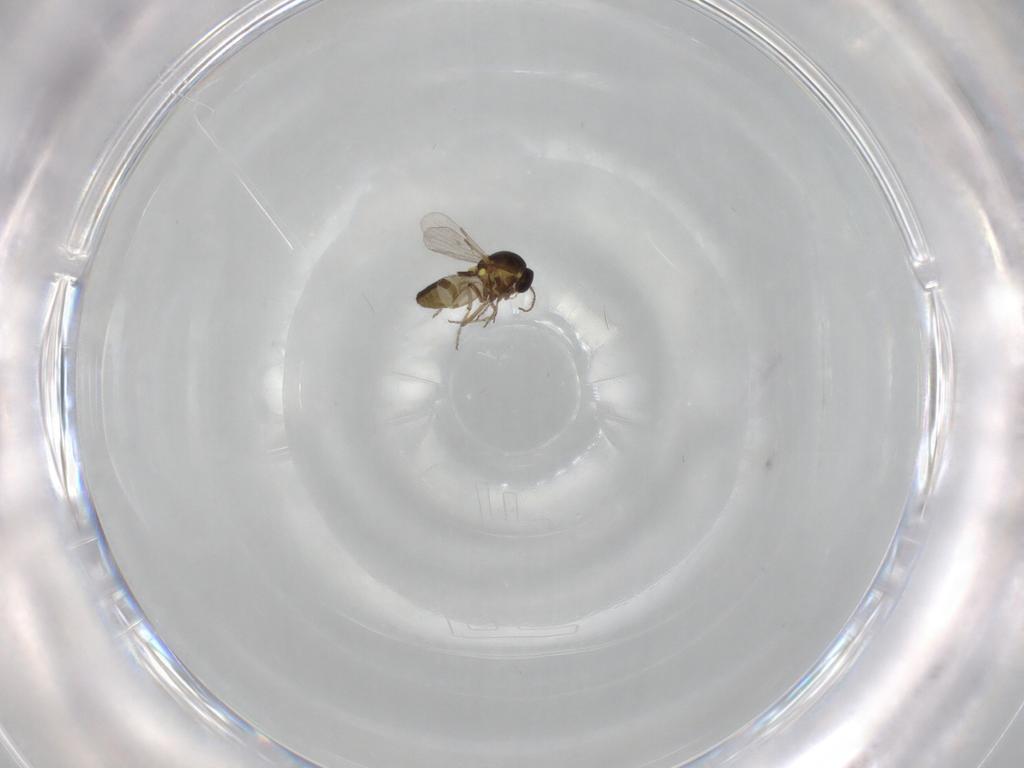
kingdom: Animalia
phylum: Arthropoda
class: Insecta
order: Diptera
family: Ceratopogonidae
